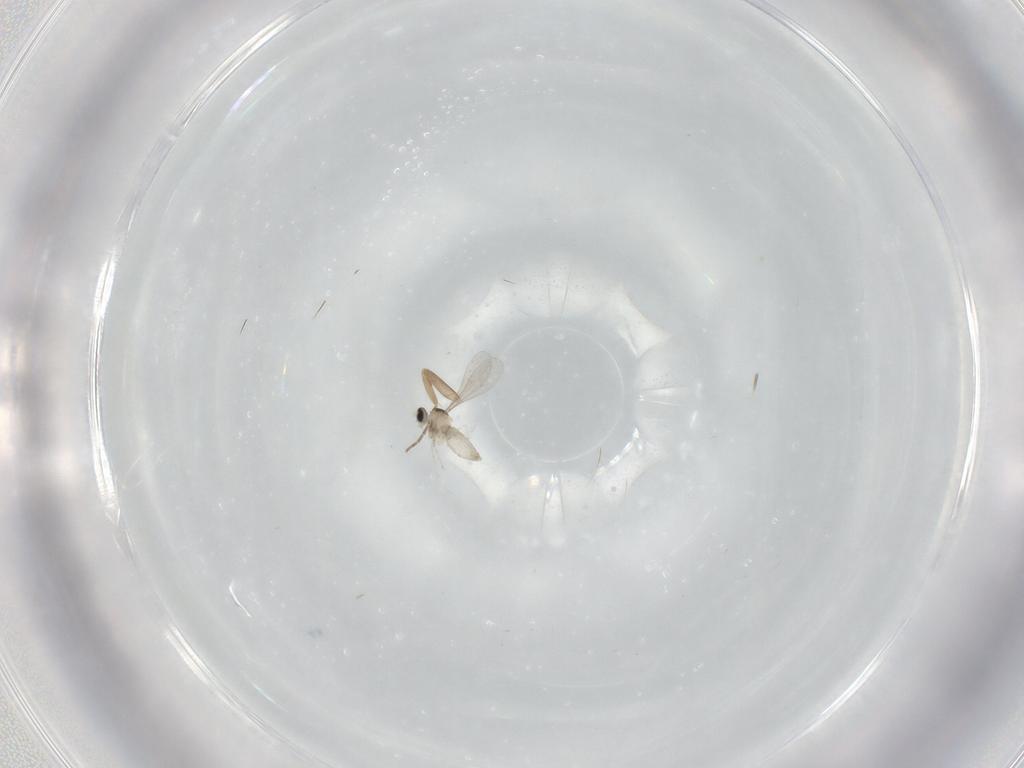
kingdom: Animalia
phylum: Arthropoda
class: Insecta
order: Diptera
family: Cecidomyiidae
